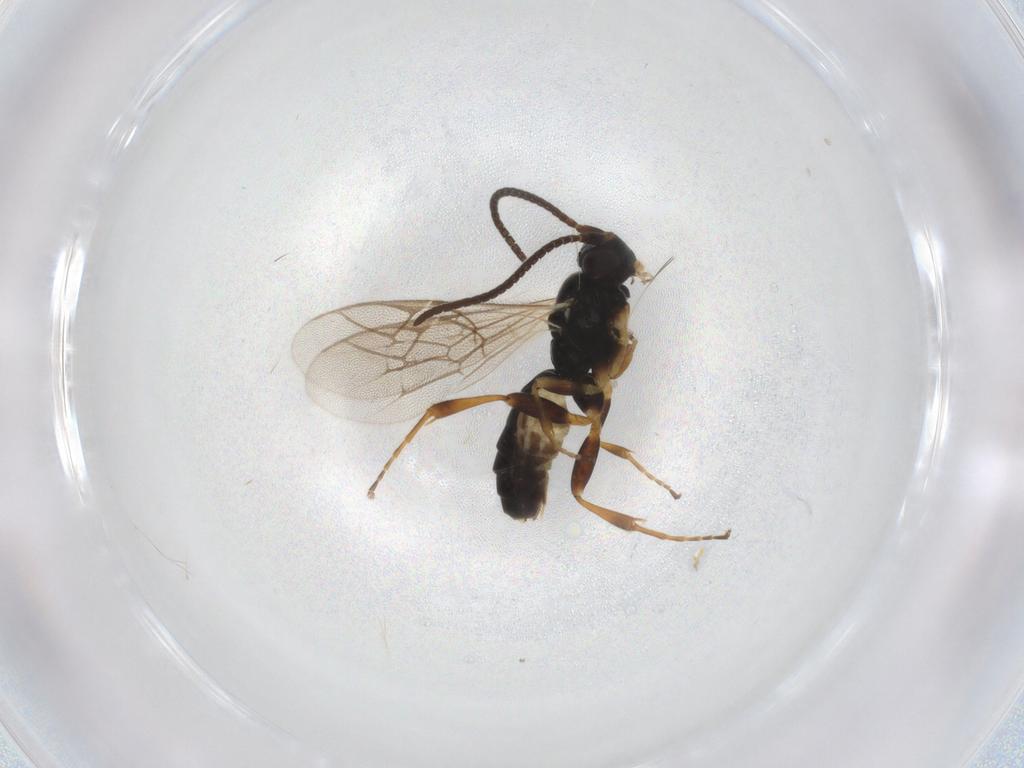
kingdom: Animalia
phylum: Arthropoda
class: Insecta
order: Hymenoptera
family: Ichneumonidae
